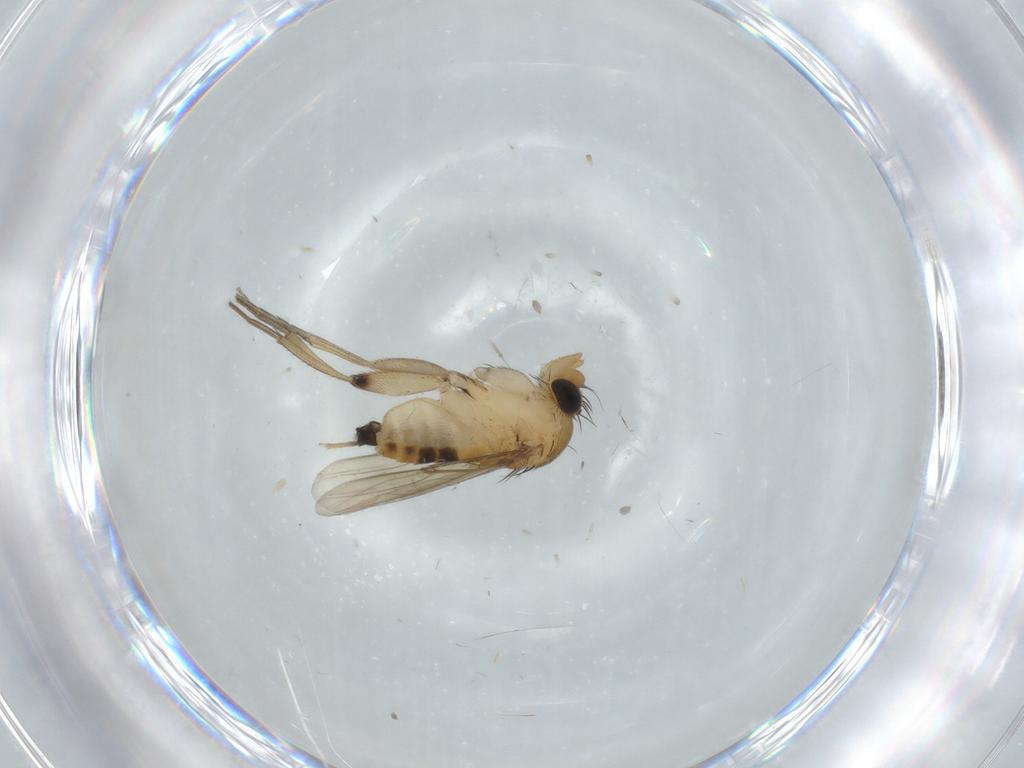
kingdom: Animalia
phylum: Arthropoda
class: Insecta
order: Diptera
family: Phoridae
